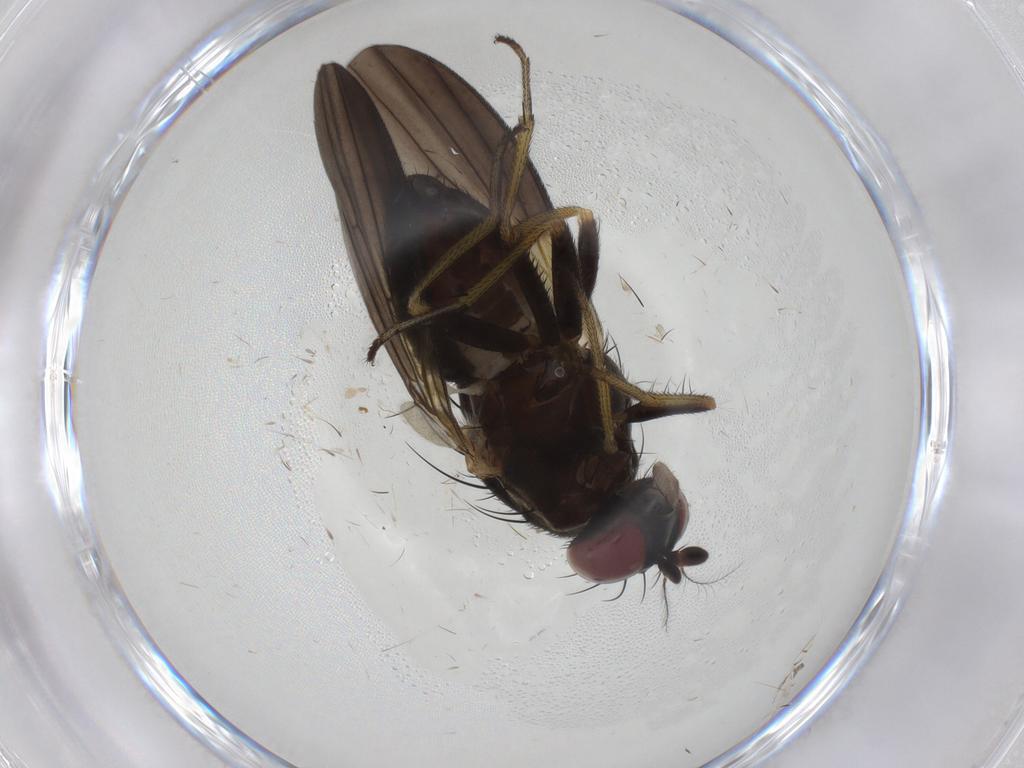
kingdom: Animalia
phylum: Arthropoda
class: Insecta
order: Diptera
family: Cecidomyiidae
